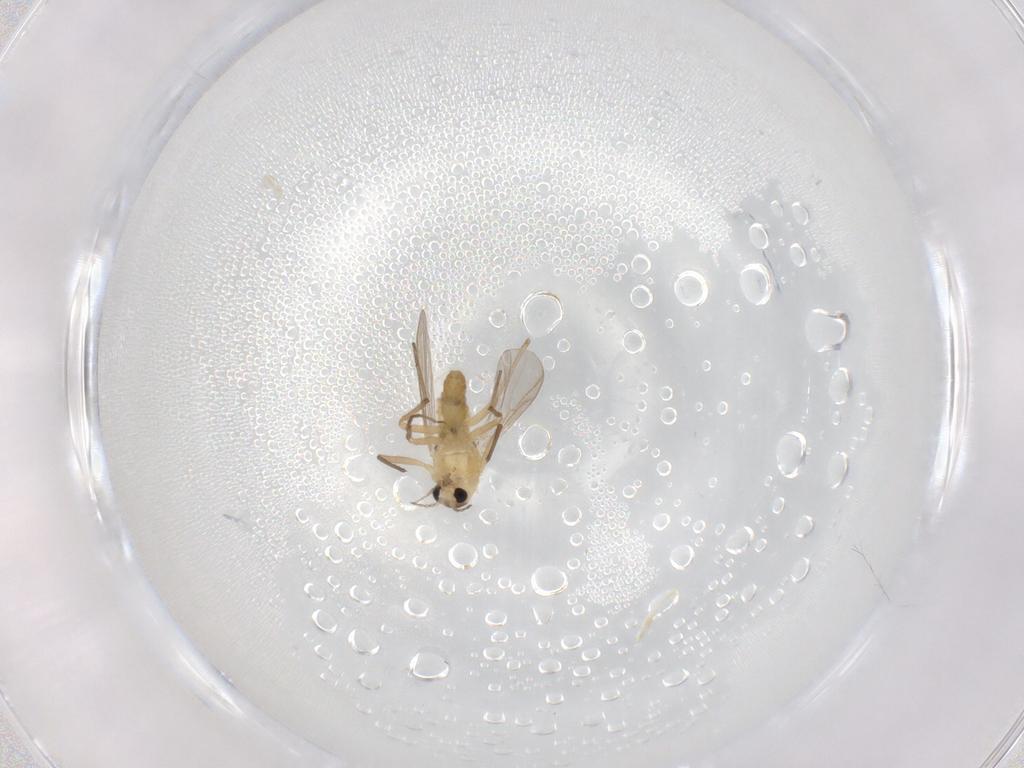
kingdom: Animalia
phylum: Arthropoda
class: Insecta
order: Diptera
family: Chironomidae
